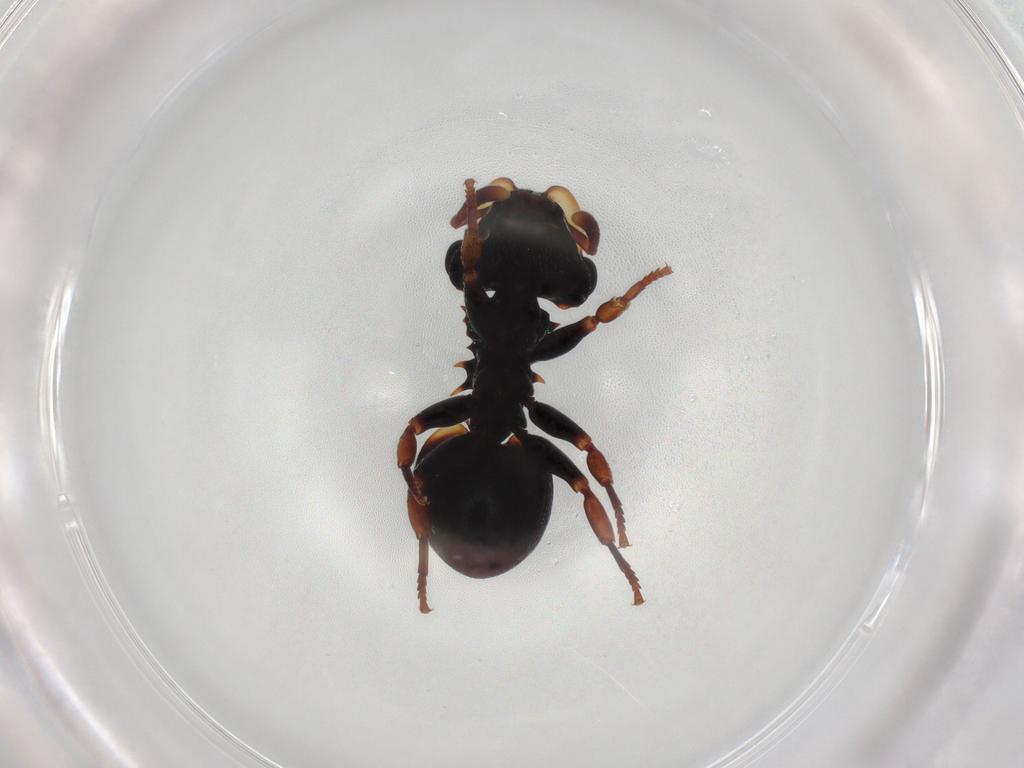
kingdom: Animalia
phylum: Arthropoda
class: Insecta
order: Hymenoptera
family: Formicidae
